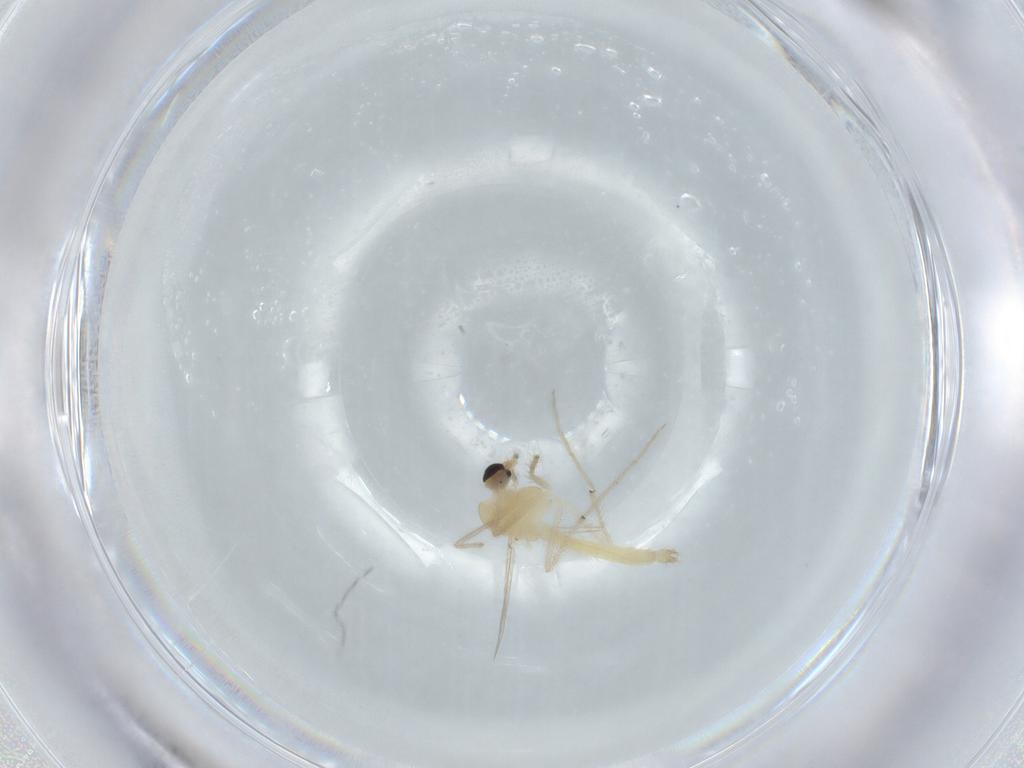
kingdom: Animalia
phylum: Arthropoda
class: Insecta
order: Diptera
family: Chironomidae
